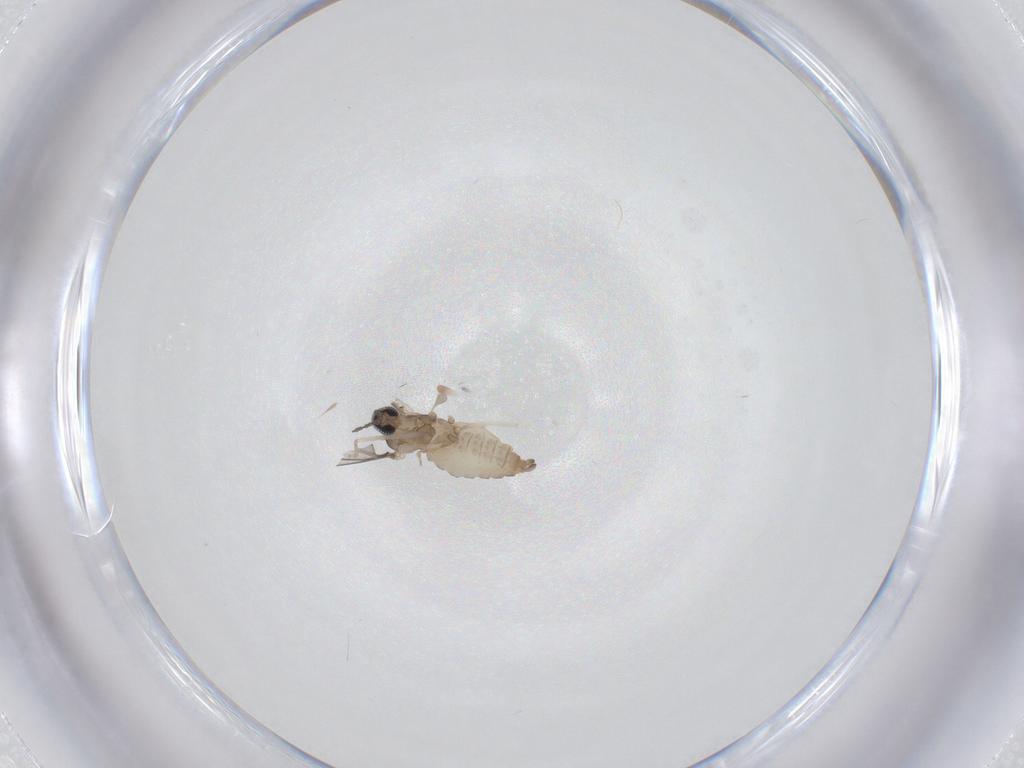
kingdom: Animalia
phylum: Arthropoda
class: Insecta
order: Diptera
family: Cecidomyiidae
